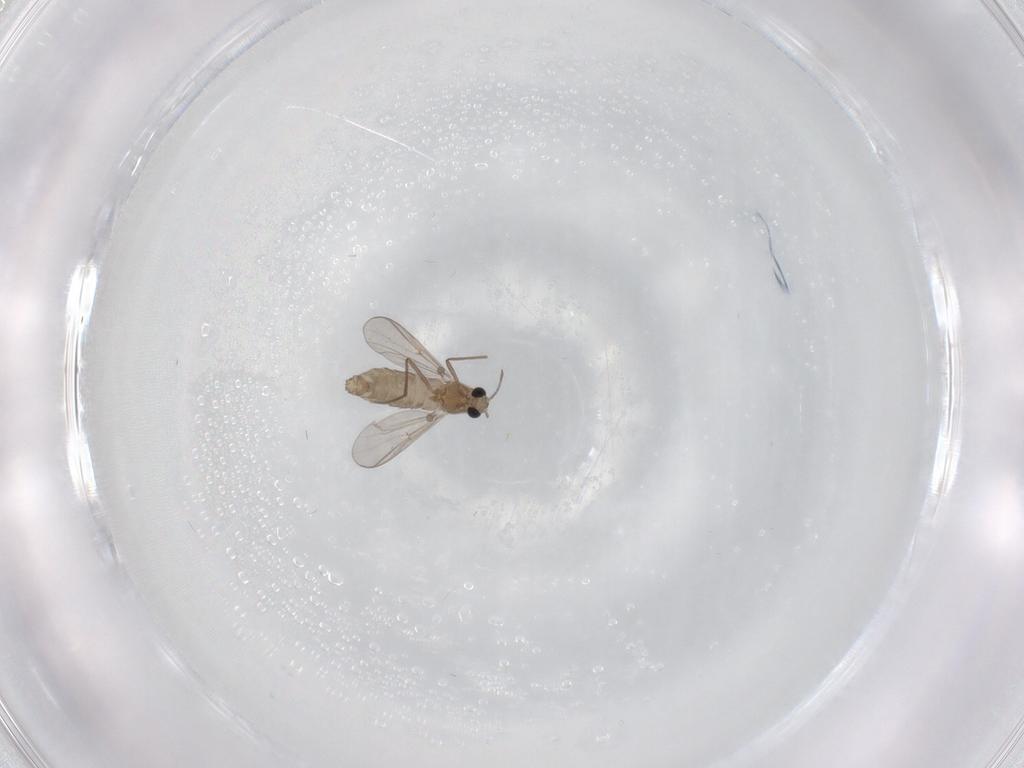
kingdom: Animalia
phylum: Arthropoda
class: Insecta
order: Diptera
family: Chironomidae
